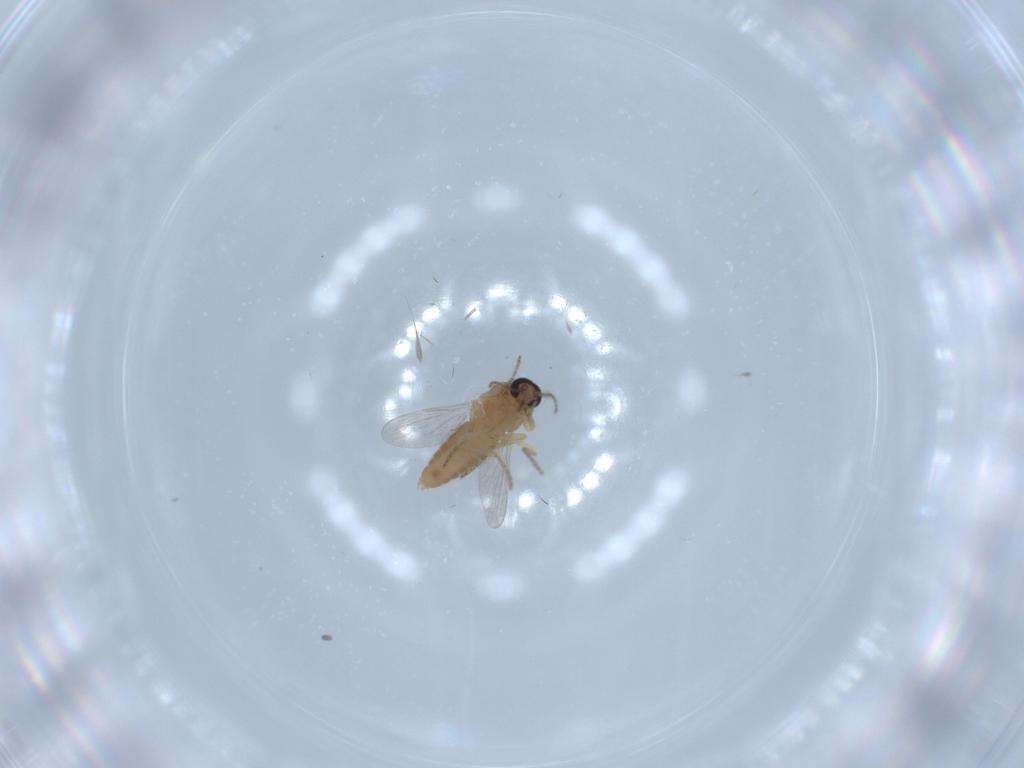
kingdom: Animalia
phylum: Arthropoda
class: Insecta
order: Diptera
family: Ceratopogonidae
